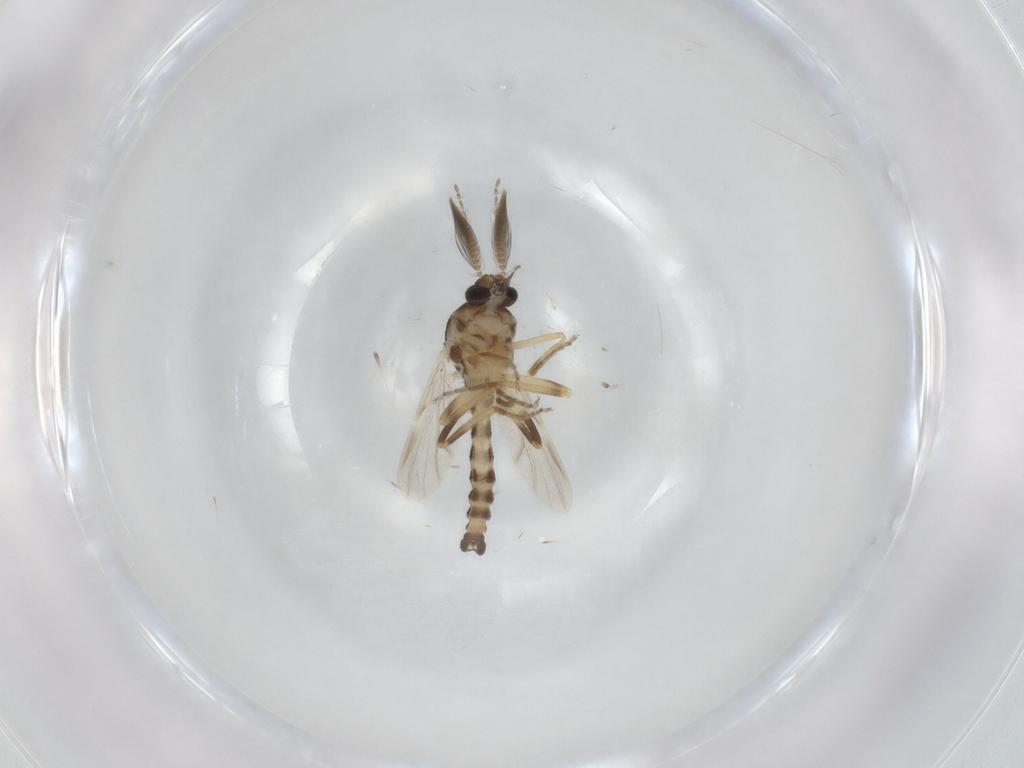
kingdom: Animalia
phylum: Arthropoda
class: Insecta
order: Diptera
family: Ceratopogonidae
